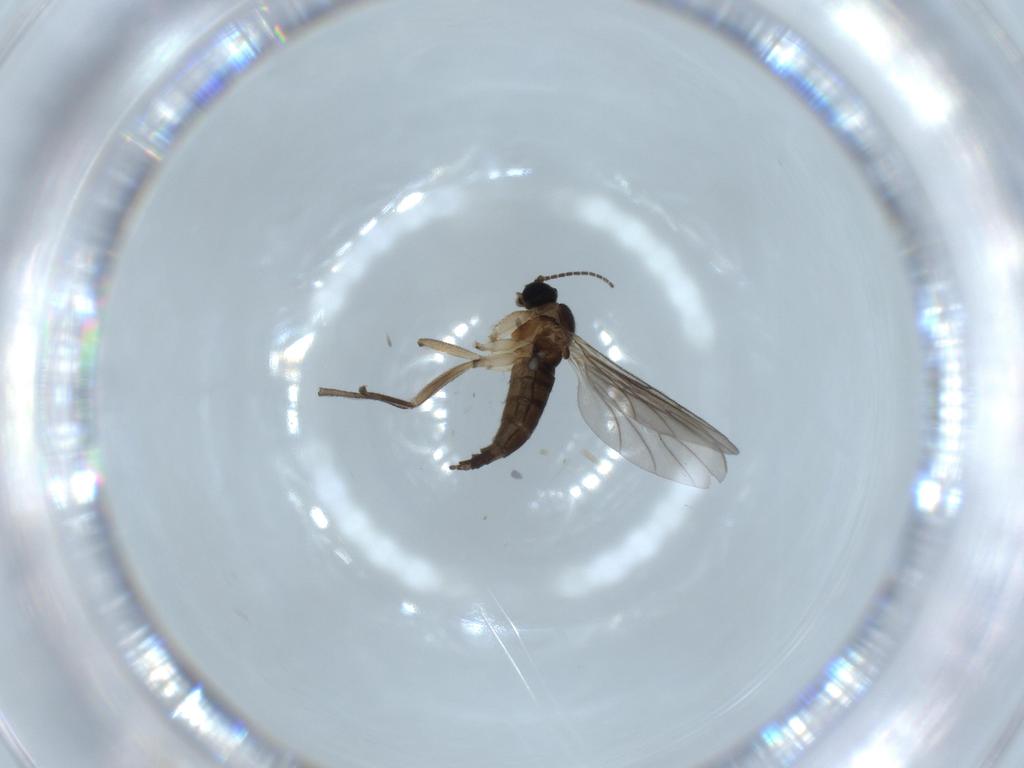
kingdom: Animalia
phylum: Arthropoda
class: Insecta
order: Diptera
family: Sciaridae
